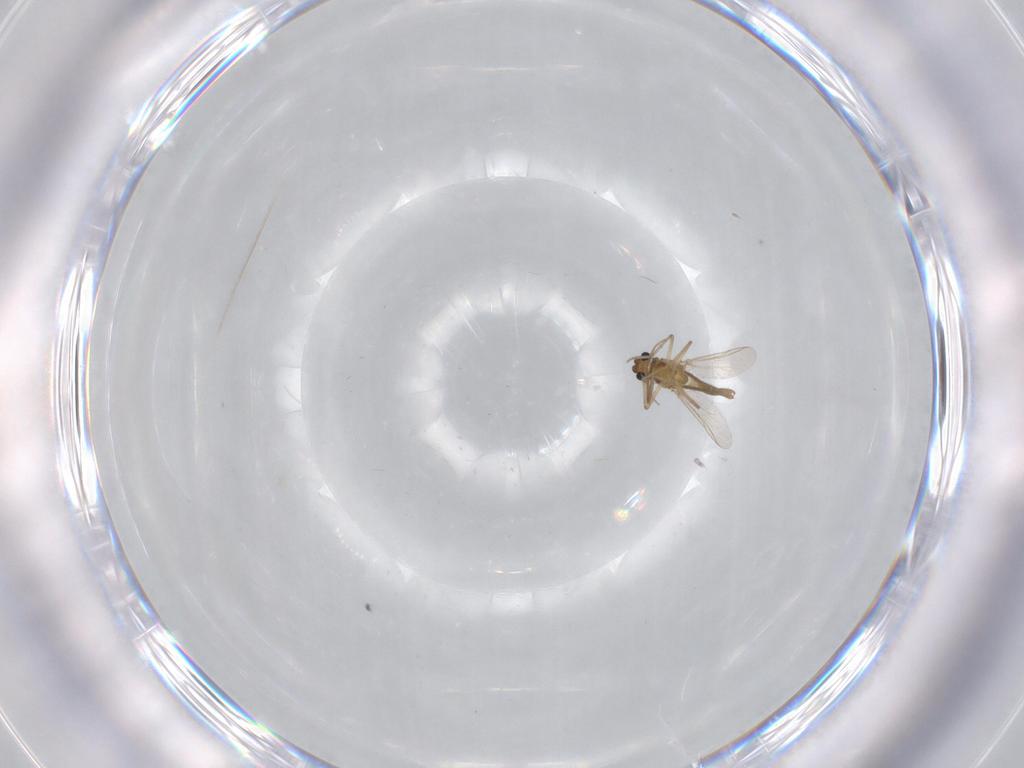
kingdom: Animalia
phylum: Arthropoda
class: Insecta
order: Diptera
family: Chironomidae
